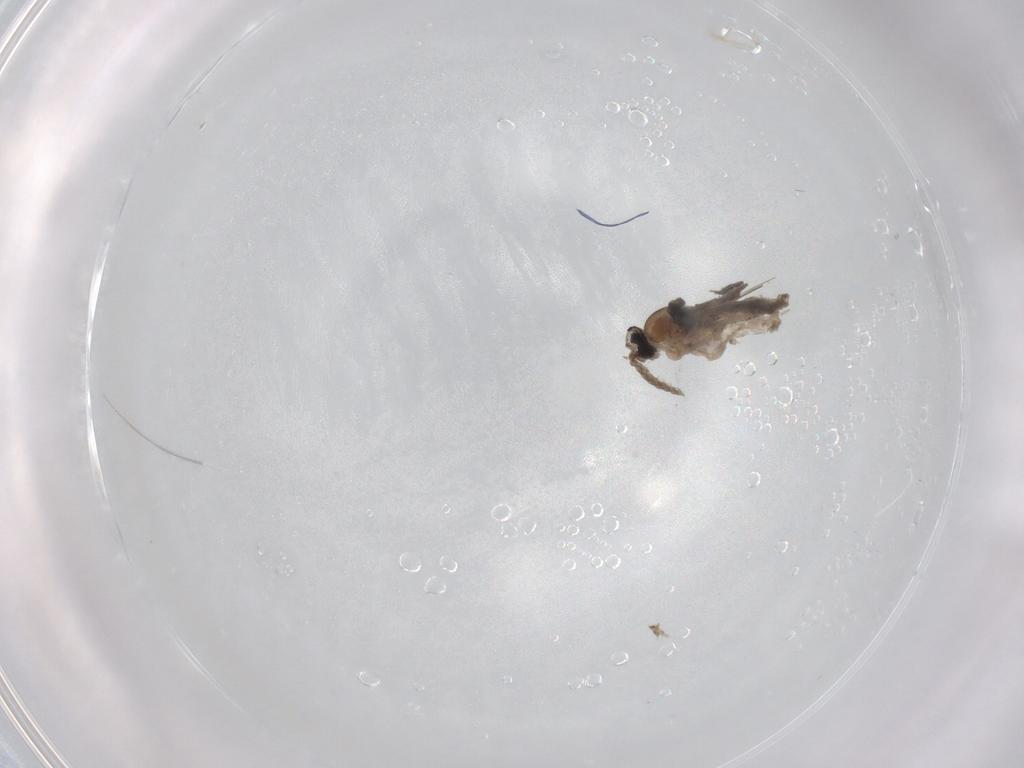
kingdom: Animalia
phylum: Arthropoda
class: Insecta
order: Diptera
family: Cecidomyiidae
